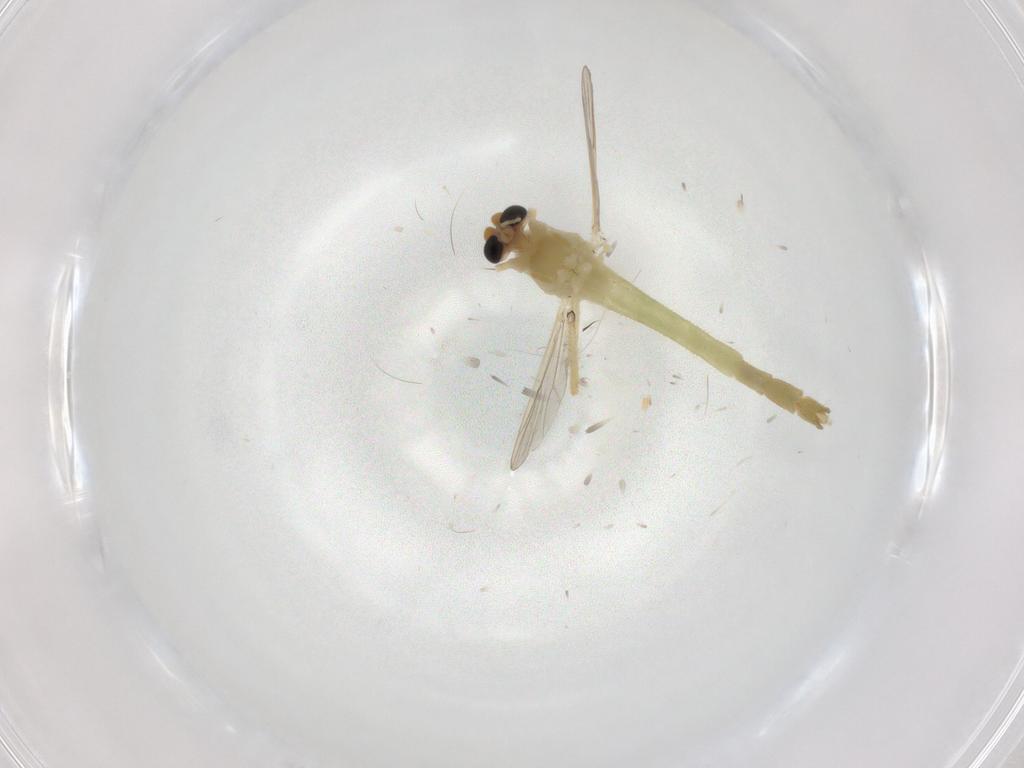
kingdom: Animalia
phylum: Arthropoda
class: Insecta
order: Diptera
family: Chironomidae
